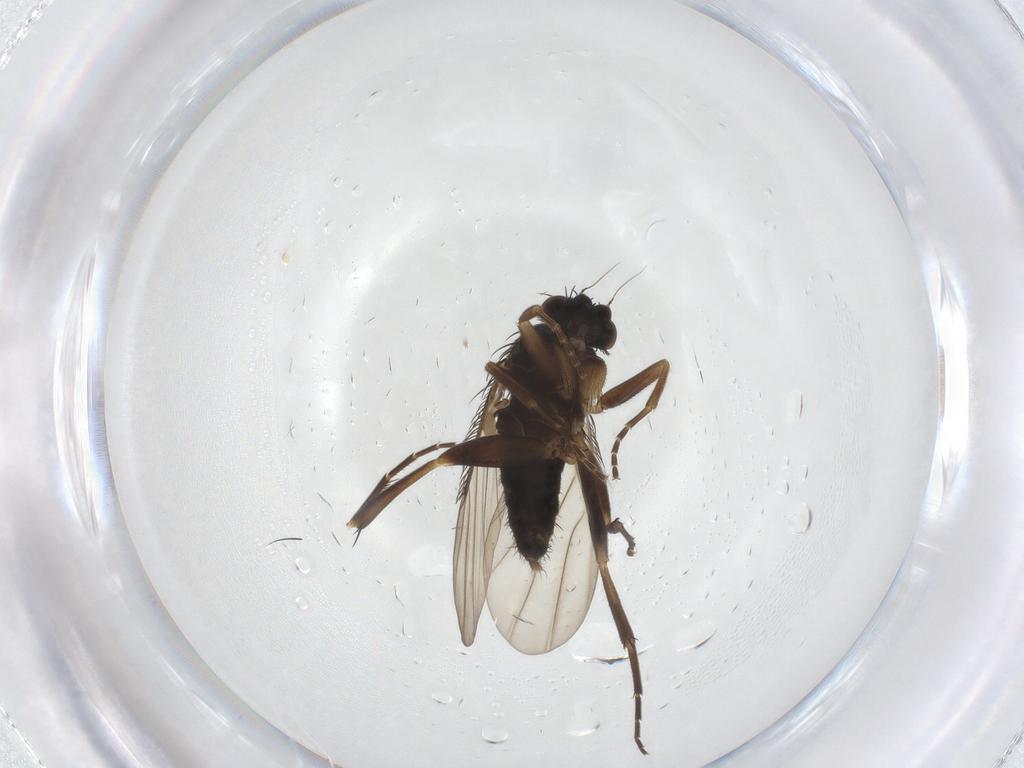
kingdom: Animalia
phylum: Arthropoda
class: Insecta
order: Diptera
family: Phoridae
